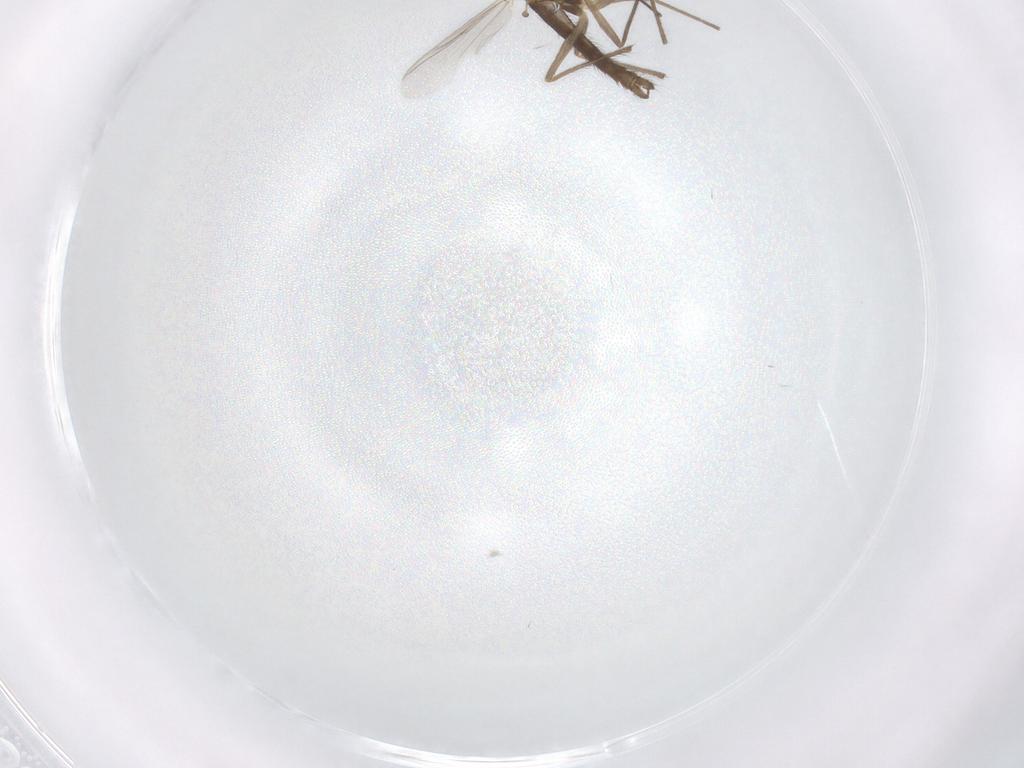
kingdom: Animalia
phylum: Arthropoda
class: Insecta
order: Diptera
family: Chironomidae
